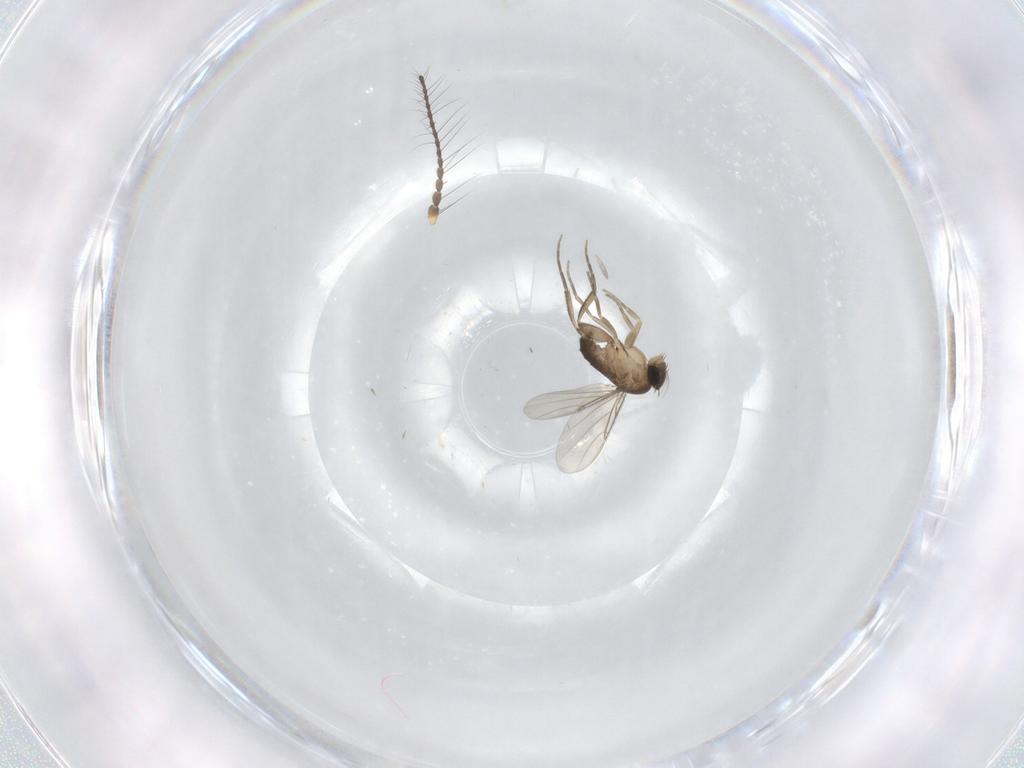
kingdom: Animalia
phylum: Arthropoda
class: Insecta
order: Diptera
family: Phoridae
